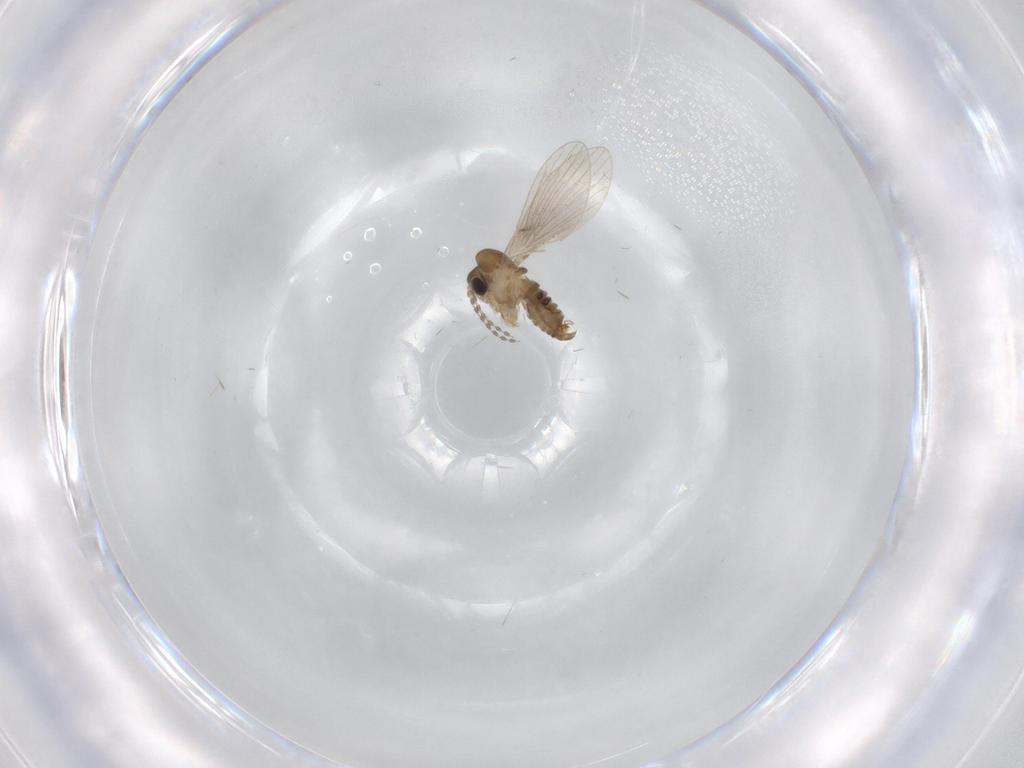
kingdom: Animalia
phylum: Arthropoda
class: Insecta
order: Diptera
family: Psychodidae
